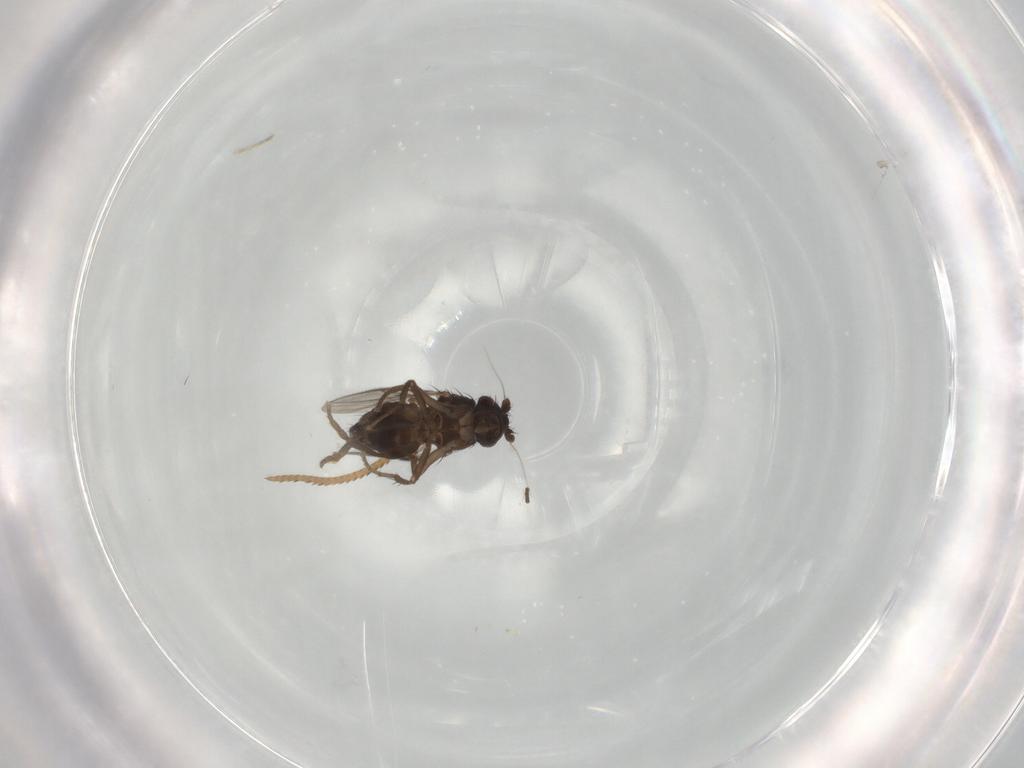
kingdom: Animalia
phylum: Arthropoda
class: Insecta
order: Diptera
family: Sphaeroceridae
